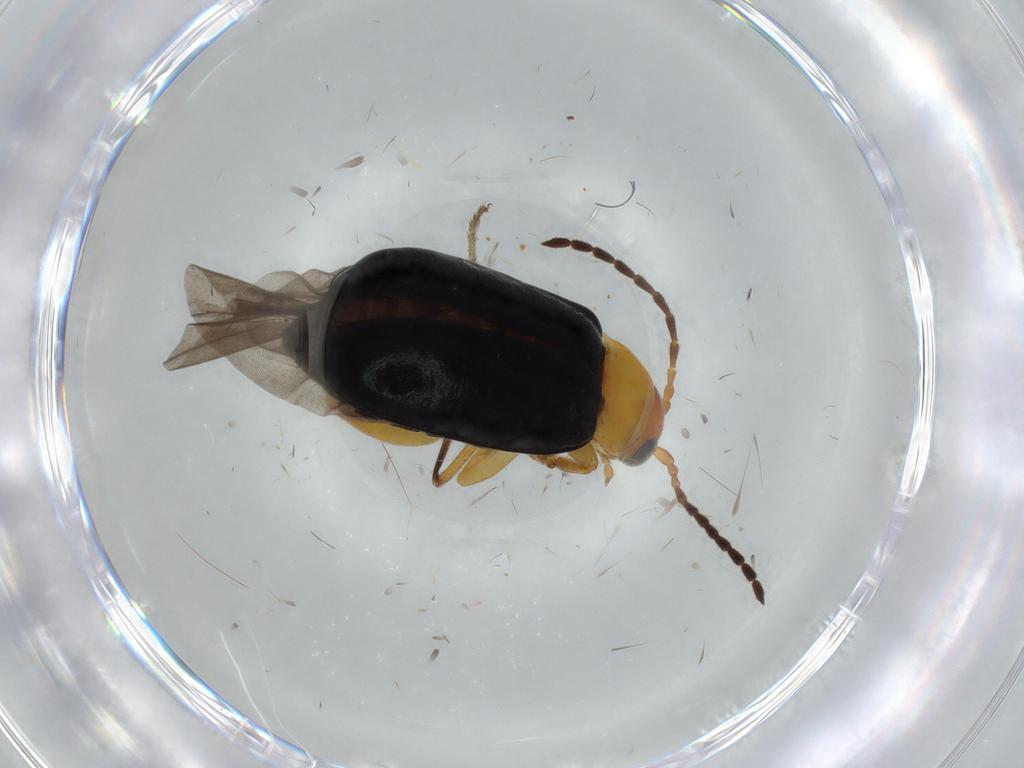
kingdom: Animalia
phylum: Arthropoda
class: Insecta
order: Coleoptera
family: Chrysomelidae
